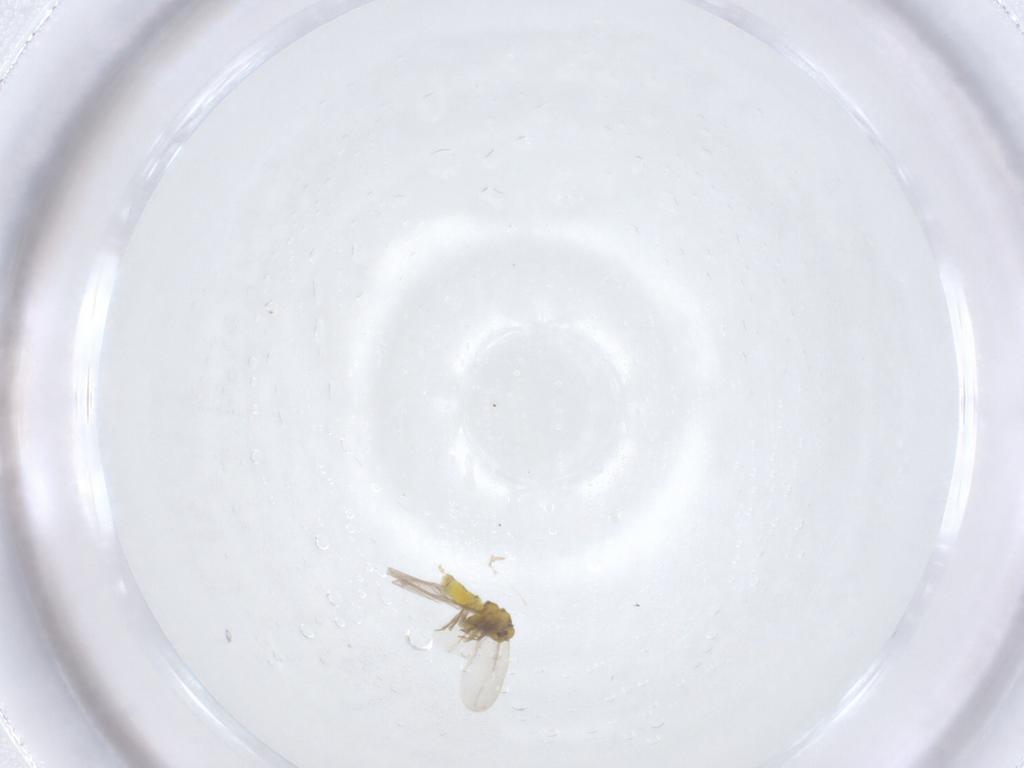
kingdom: Animalia
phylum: Arthropoda
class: Insecta
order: Hemiptera
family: Aleyrodidae
